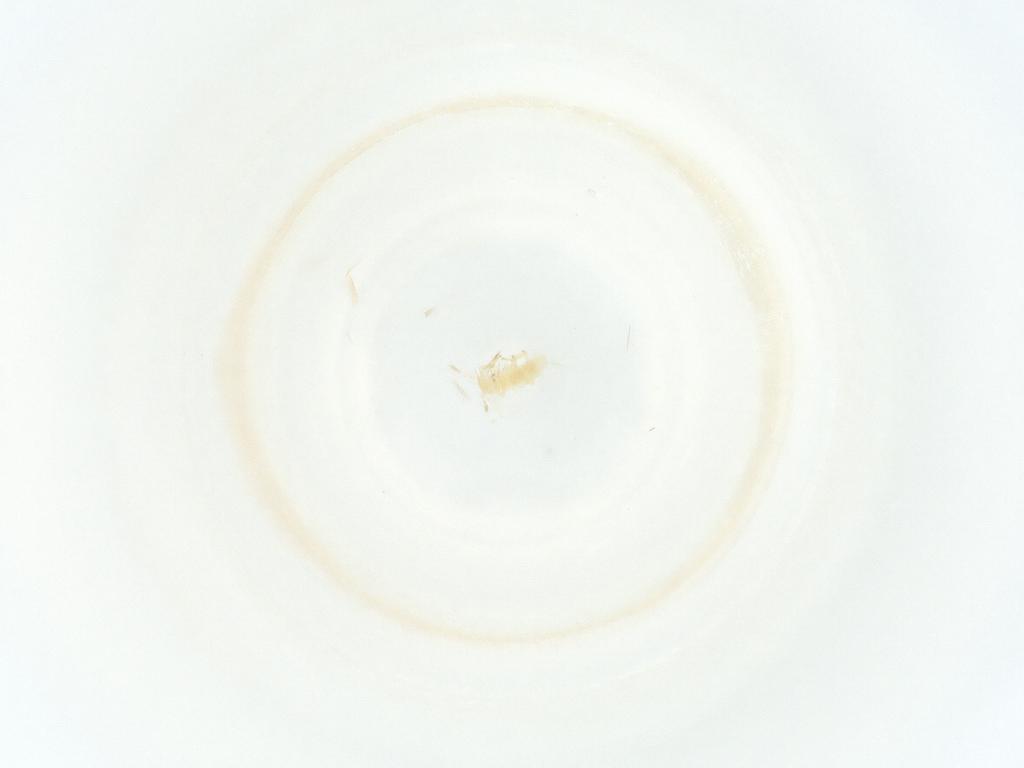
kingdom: Animalia
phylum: Arthropoda
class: Insecta
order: Hemiptera
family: Anthocoridae
